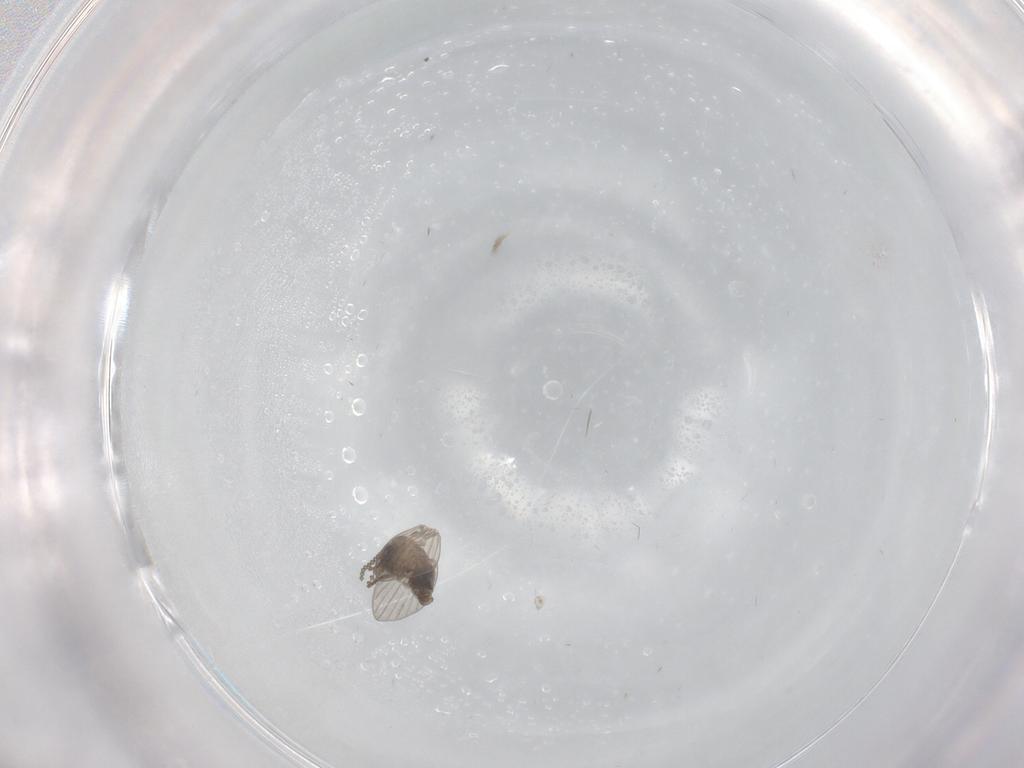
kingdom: Animalia
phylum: Arthropoda
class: Insecta
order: Diptera
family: Psychodidae
